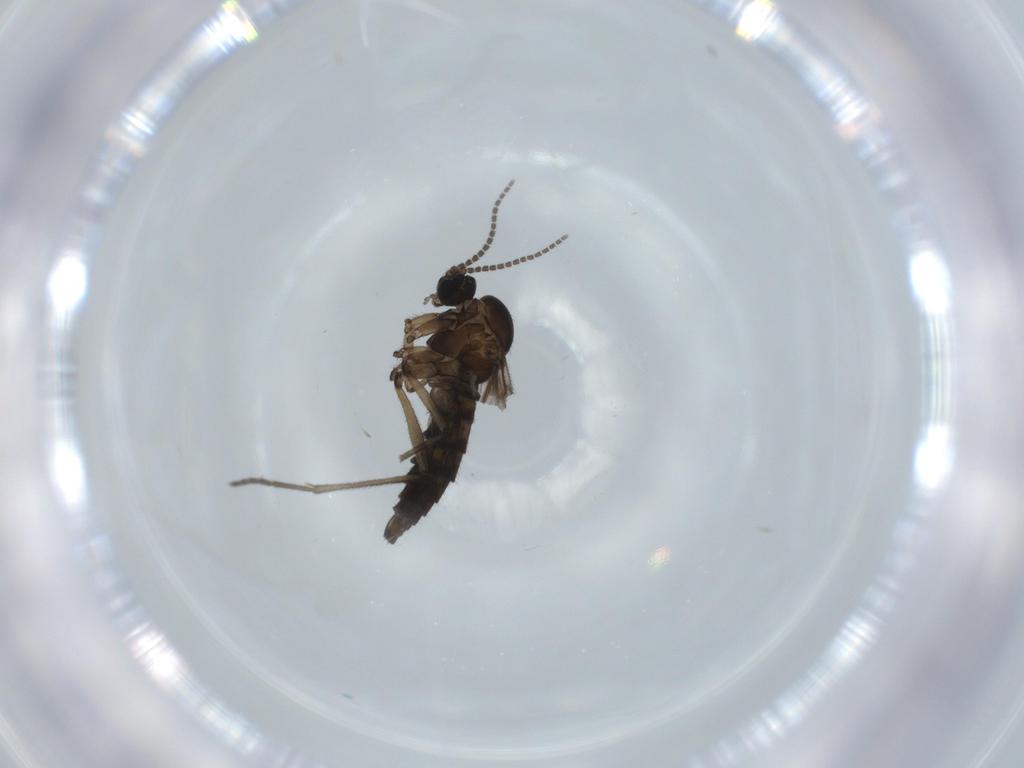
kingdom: Animalia
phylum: Arthropoda
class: Insecta
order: Diptera
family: Sciaridae
